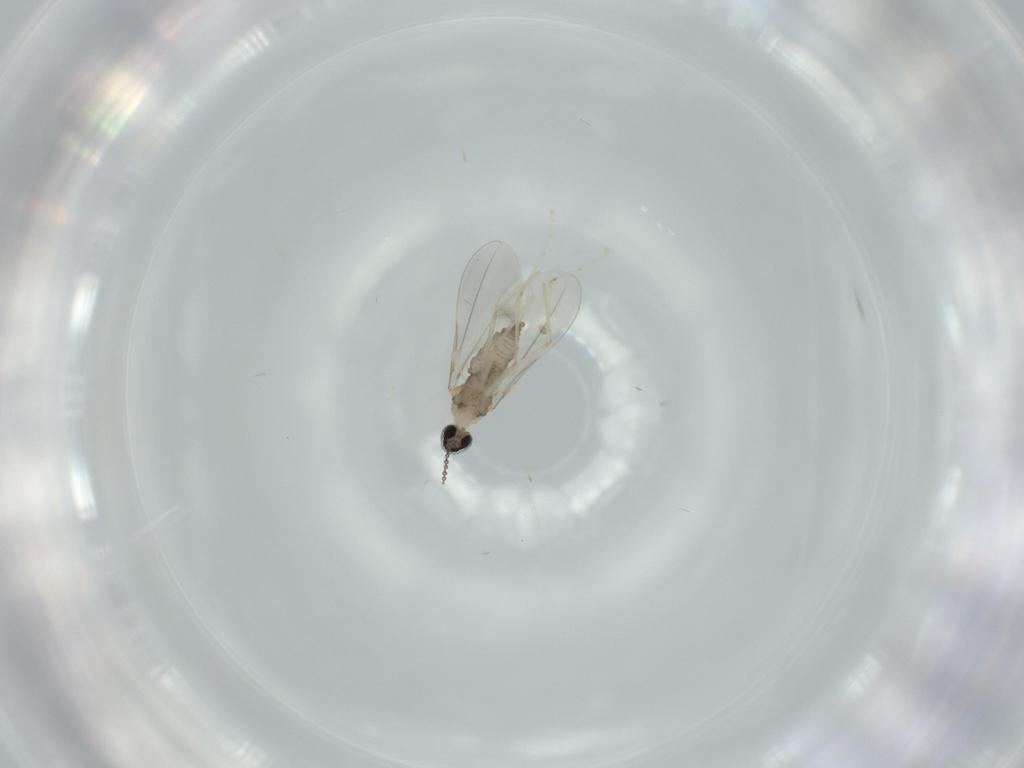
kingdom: Animalia
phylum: Arthropoda
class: Insecta
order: Diptera
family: Cecidomyiidae
